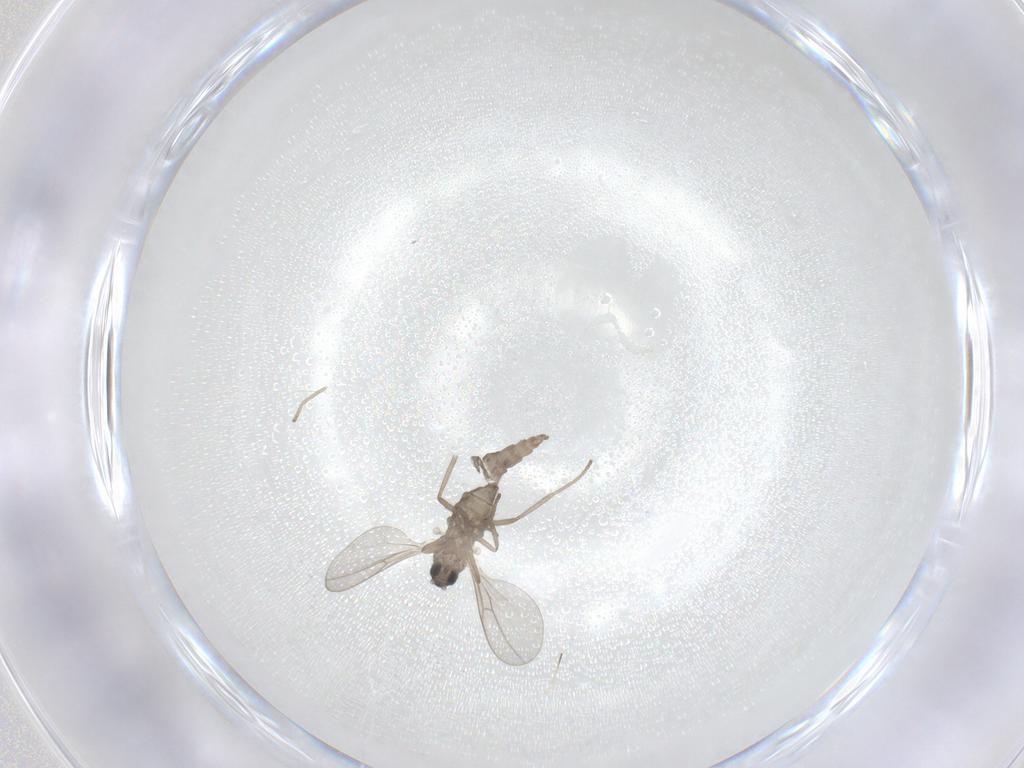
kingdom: Animalia
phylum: Arthropoda
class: Insecta
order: Diptera
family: Cecidomyiidae
